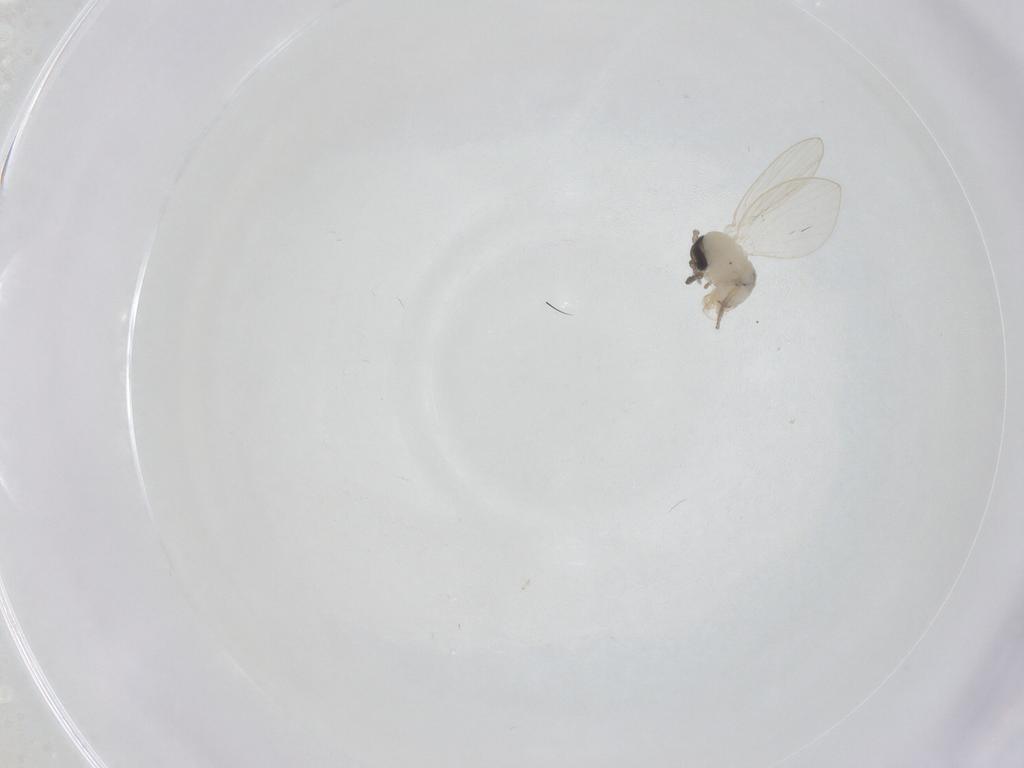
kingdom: Animalia
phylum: Arthropoda
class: Insecta
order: Diptera
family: Chironomidae
